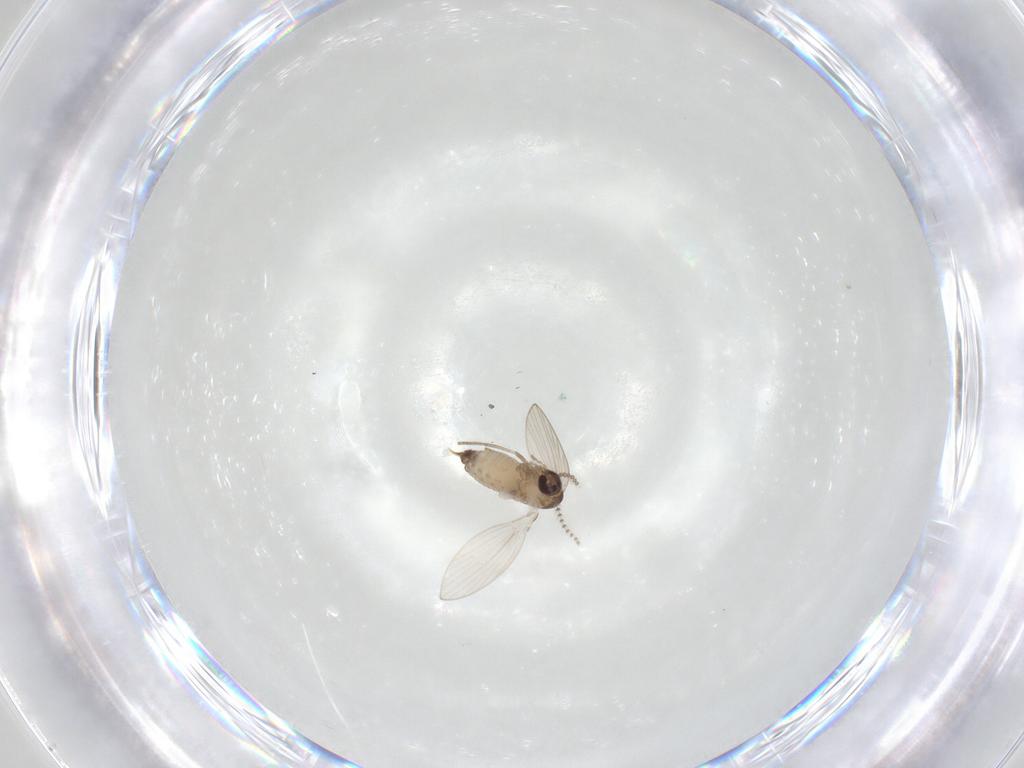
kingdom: Animalia
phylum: Arthropoda
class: Insecta
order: Diptera
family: Psychodidae
